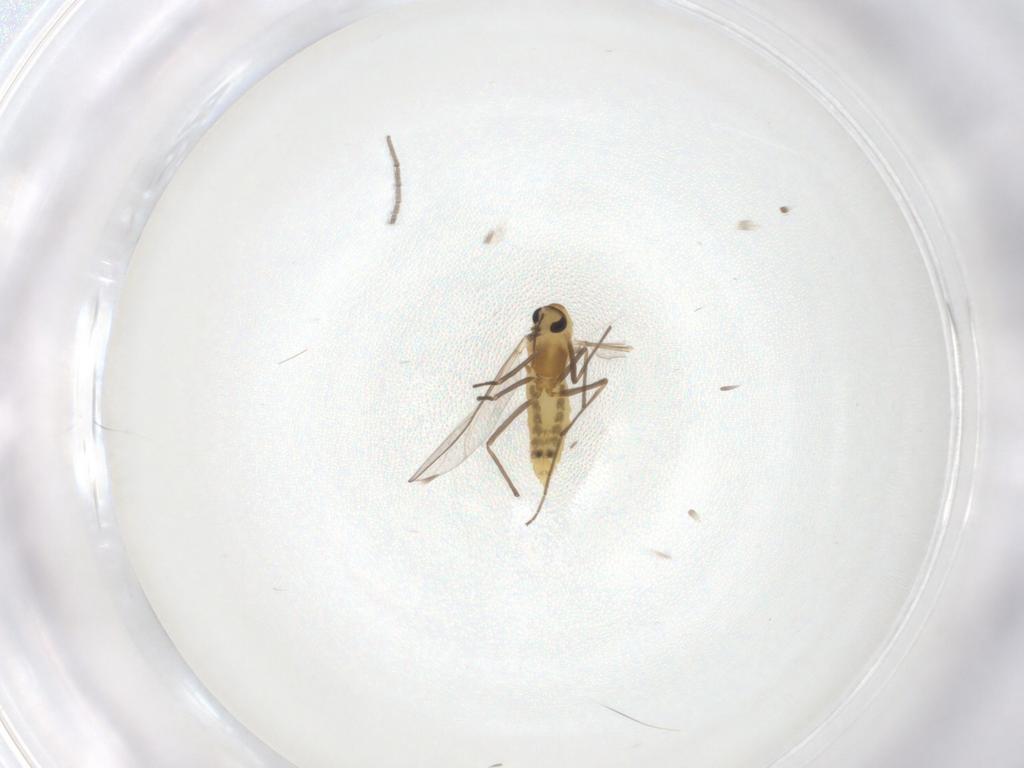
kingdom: Animalia
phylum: Arthropoda
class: Insecta
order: Diptera
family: Chironomidae
